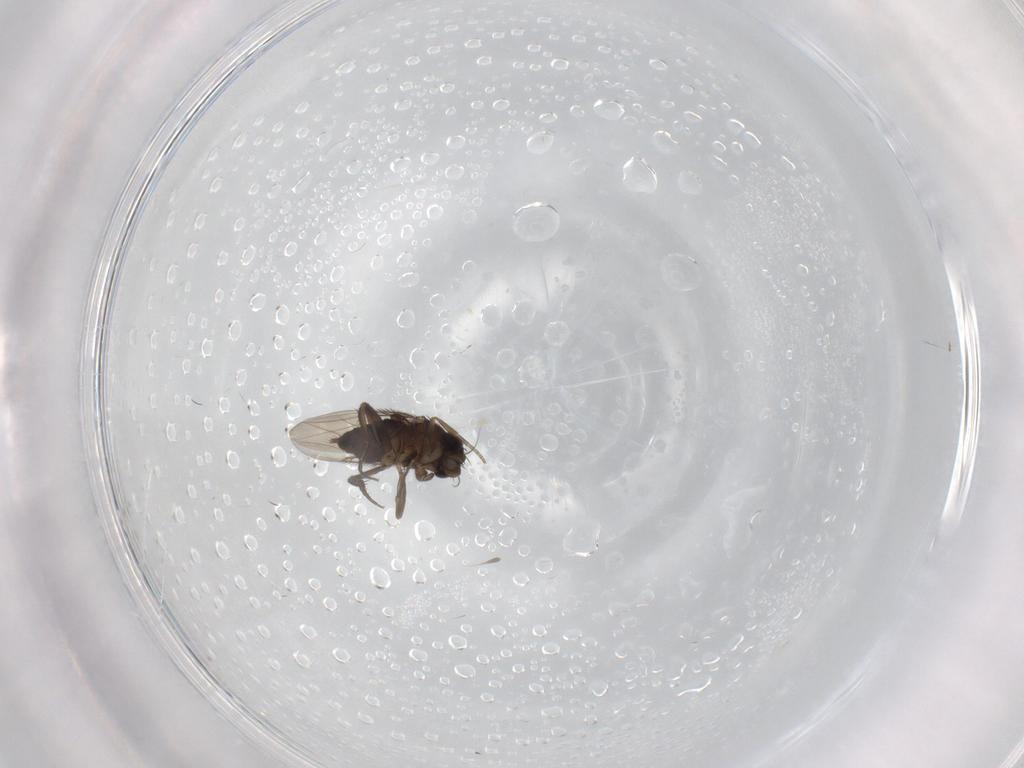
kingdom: Animalia
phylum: Arthropoda
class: Insecta
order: Diptera
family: Phoridae
